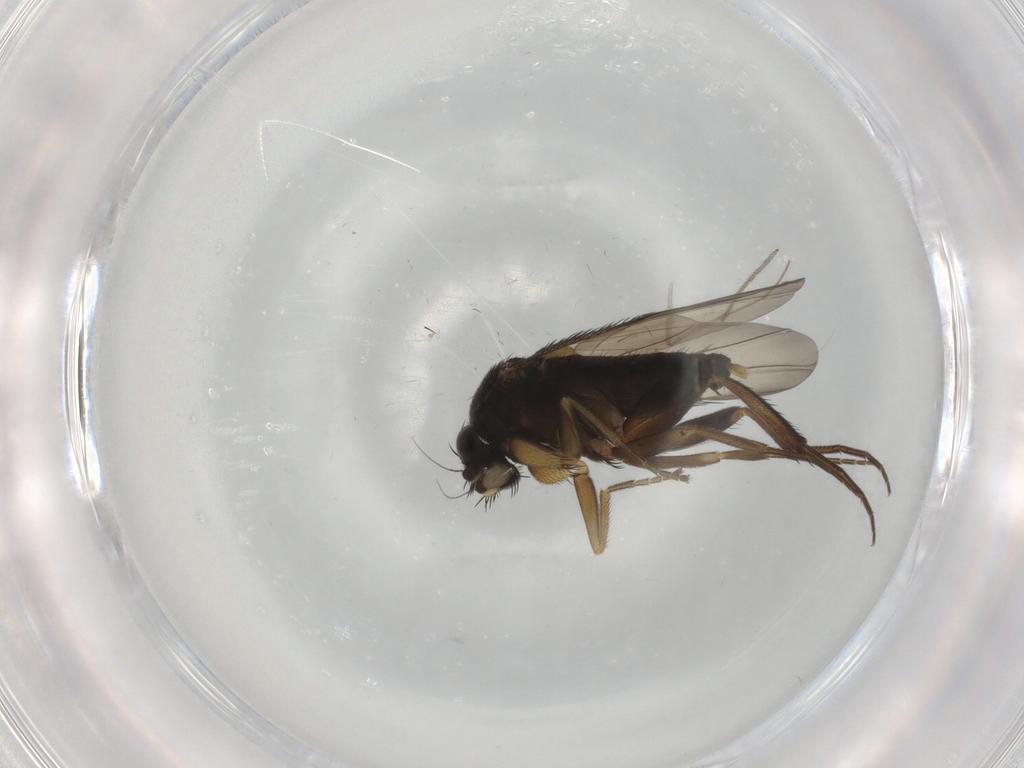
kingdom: Animalia
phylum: Arthropoda
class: Insecta
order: Diptera
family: Phoridae
